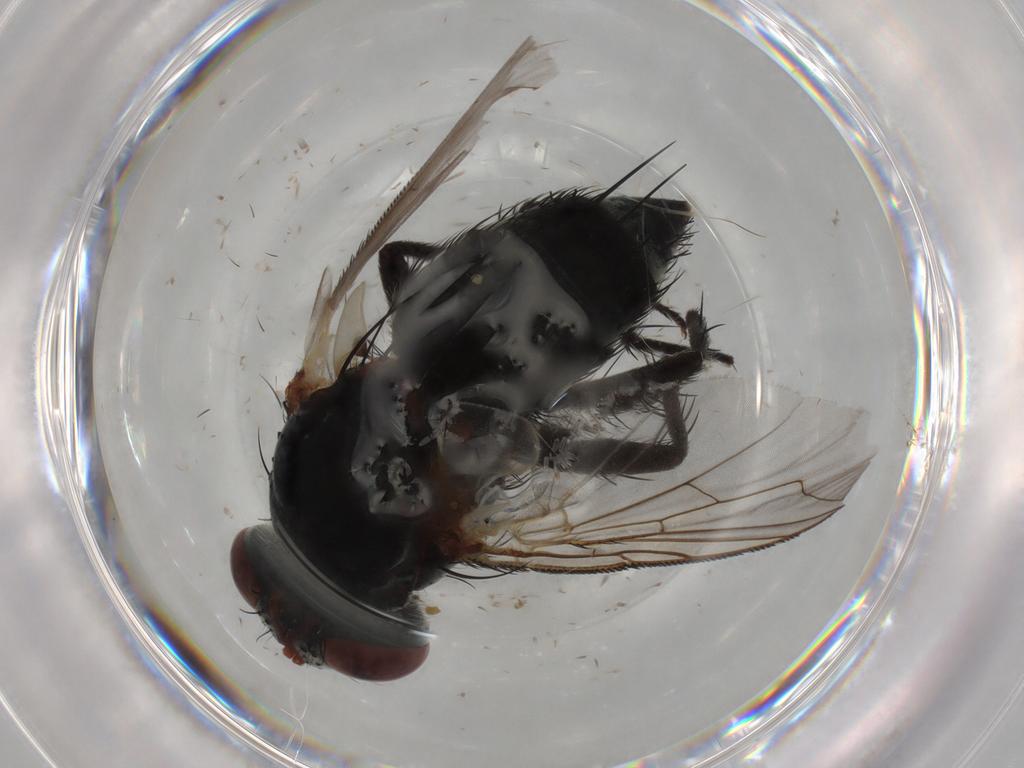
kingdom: Animalia
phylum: Arthropoda
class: Insecta
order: Diptera
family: Tachinidae
